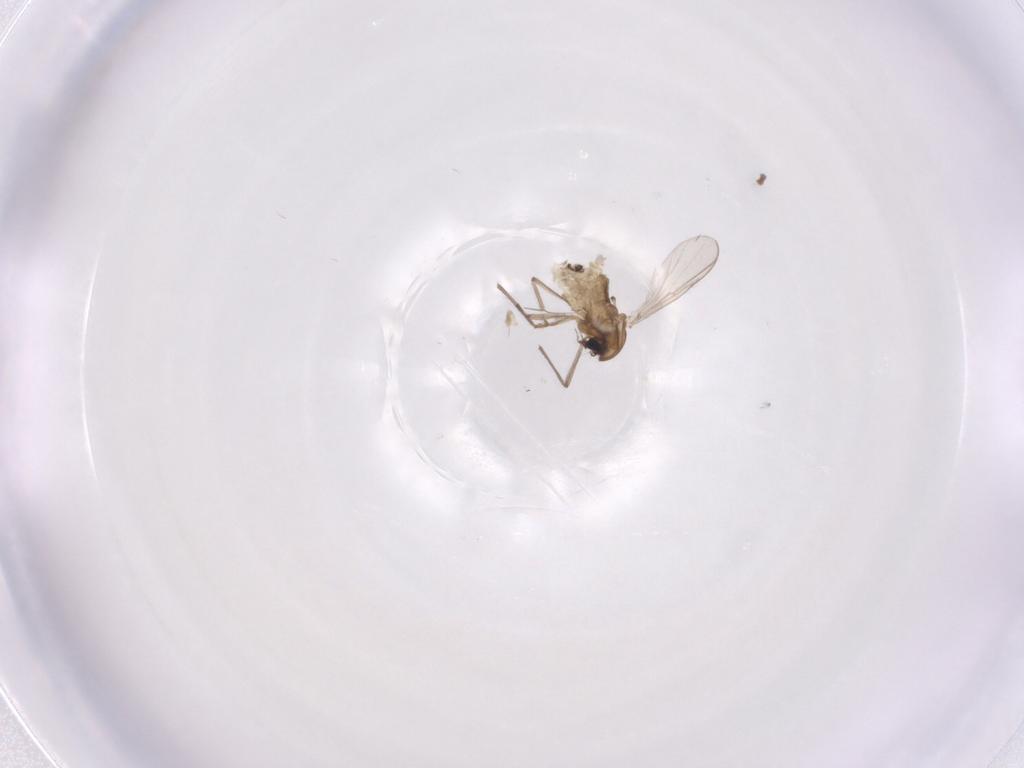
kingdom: Animalia
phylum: Arthropoda
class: Insecta
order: Diptera
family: Chironomidae
